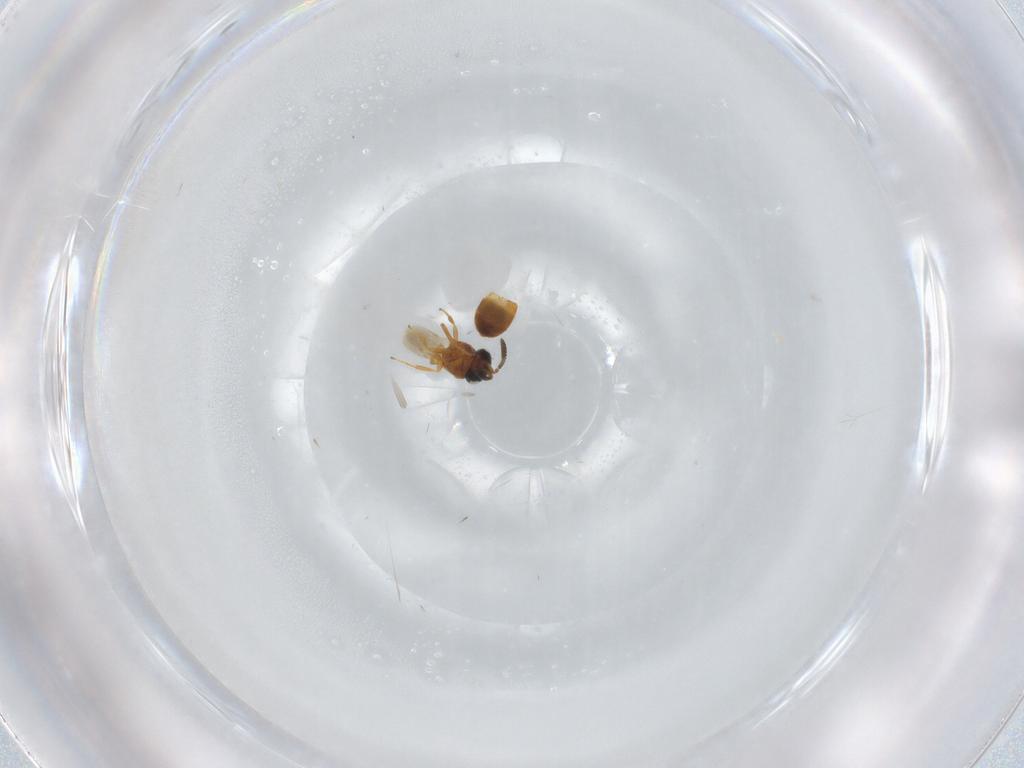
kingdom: Animalia
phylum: Arthropoda
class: Insecta
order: Hymenoptera
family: Scelionidae
